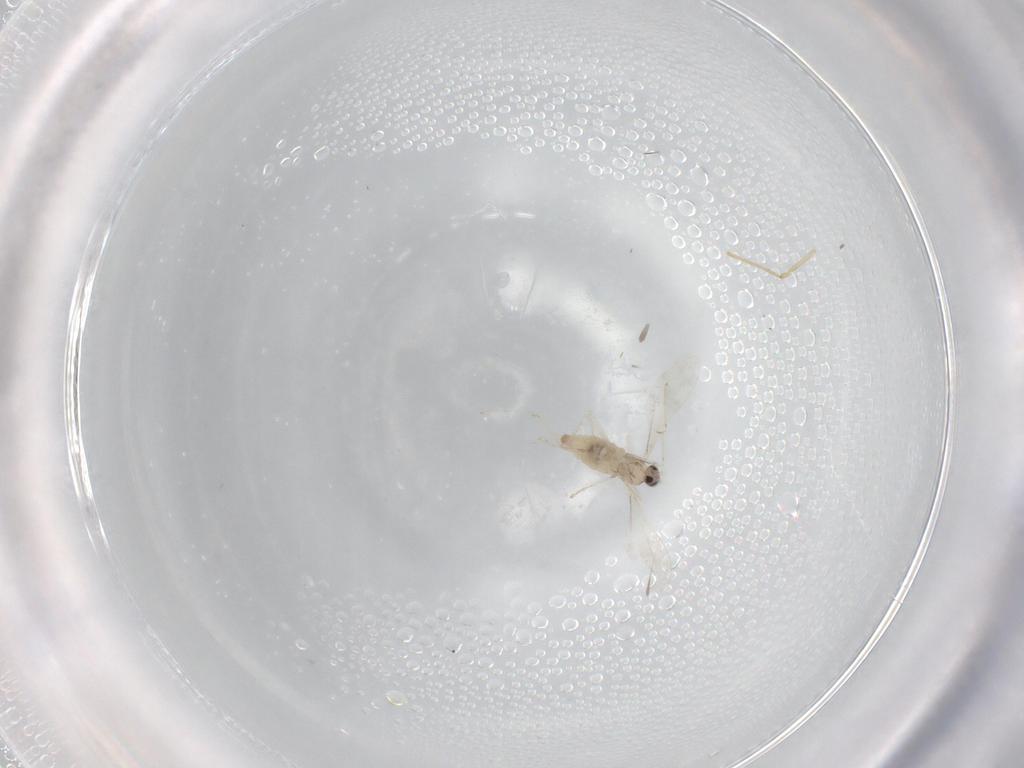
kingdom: Animalia
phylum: Arthropoda
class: Insecta
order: Diptera
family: Cecidomyiidae
